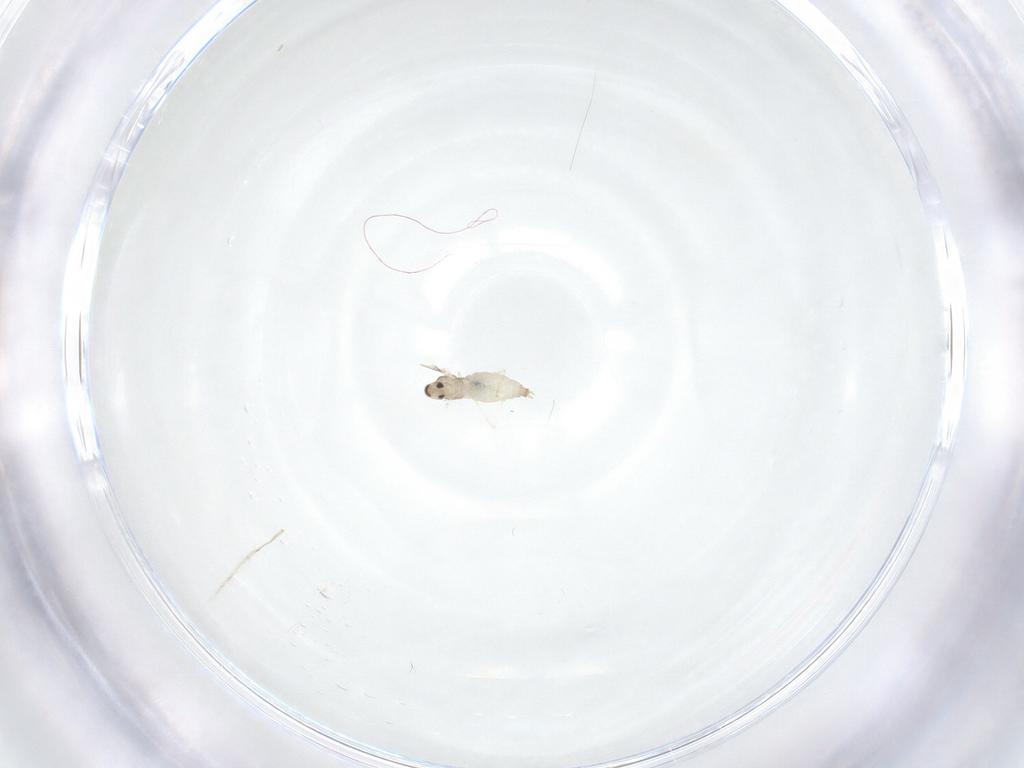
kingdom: Animalia
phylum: Arthropoda
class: Insecta
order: Diptera
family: Cecidomyiidae
